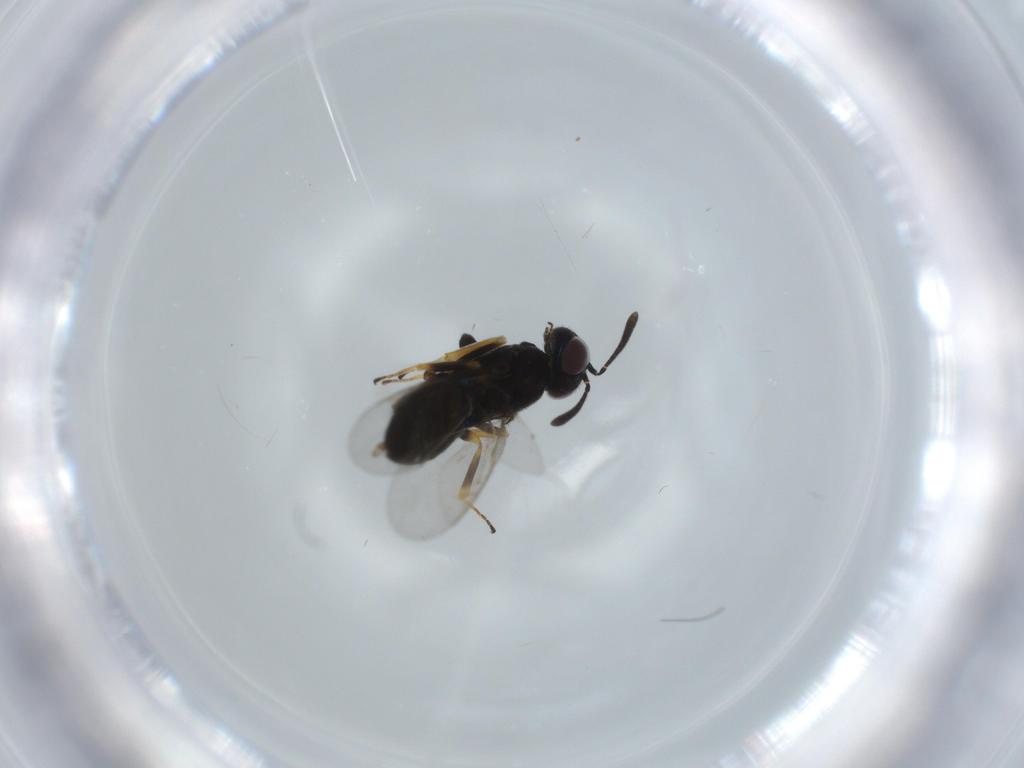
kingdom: Animalia
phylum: Arthropoda
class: Insecta
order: Hymenoptera
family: Eupelmidae
